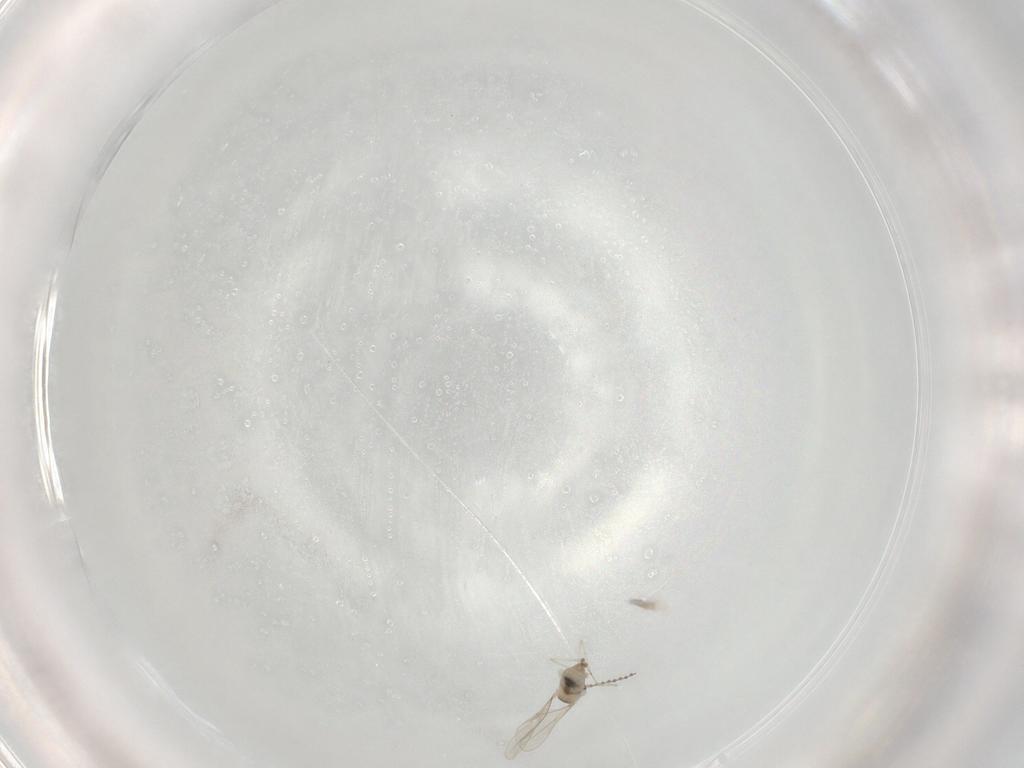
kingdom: Animalia
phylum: Arthropoda
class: Insecta
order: Diptera
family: Cecidomyiidae
